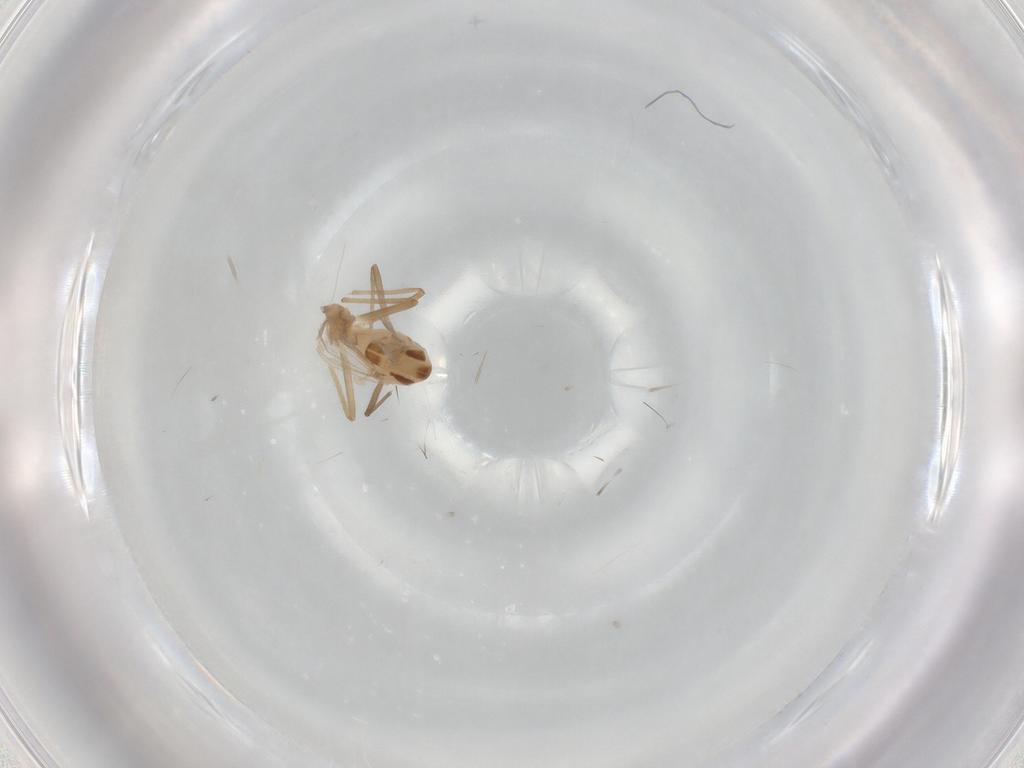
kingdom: Animalia
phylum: Arthropoda
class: Insecta
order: Diptera
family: Chironomidae
